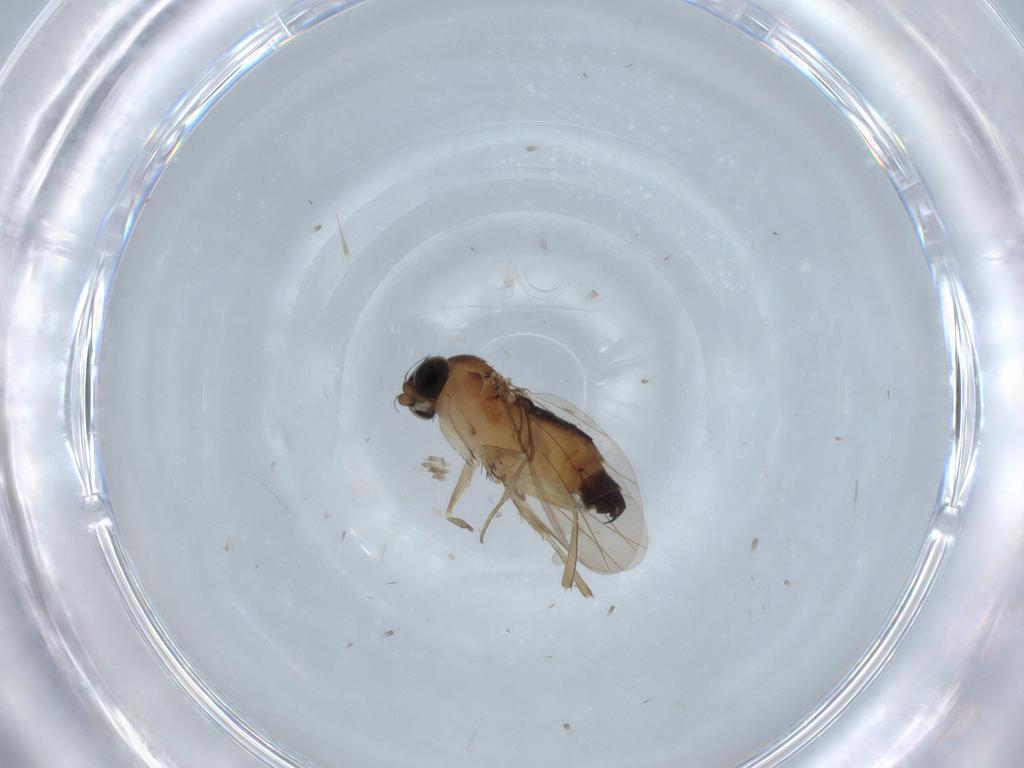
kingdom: Animalia
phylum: Arthropoda
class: Insecta
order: Diptera
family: Phoridae
